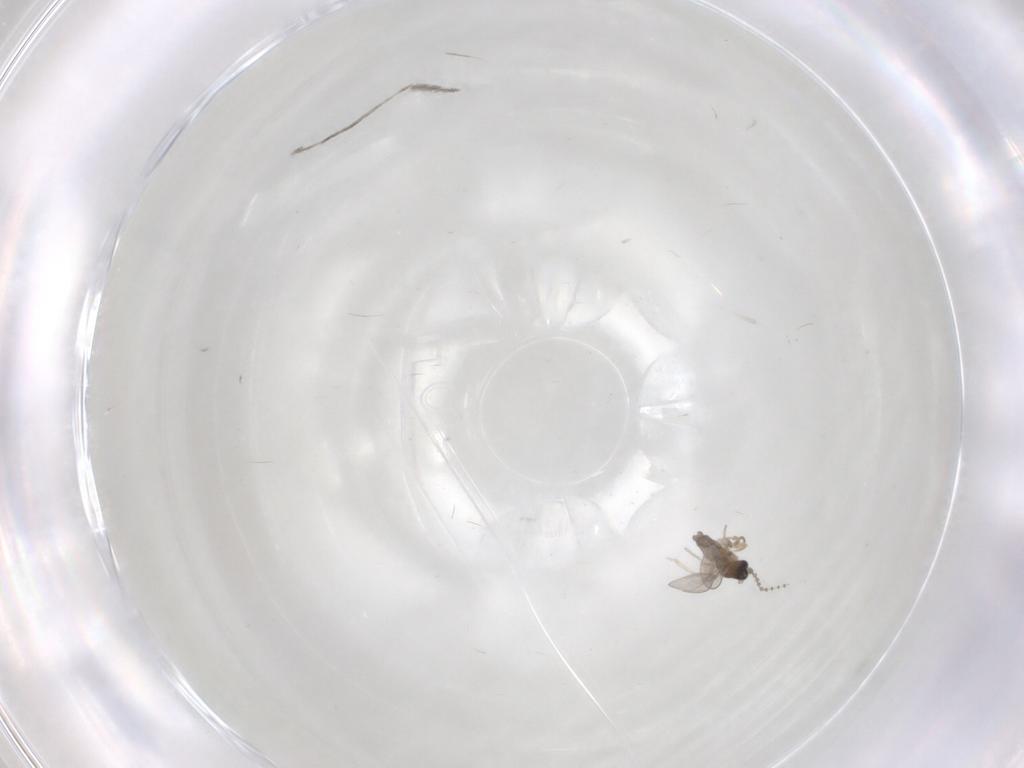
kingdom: Animalia
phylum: Arthropoda
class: Insecta
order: Diptera
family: Cecidomyiidae
